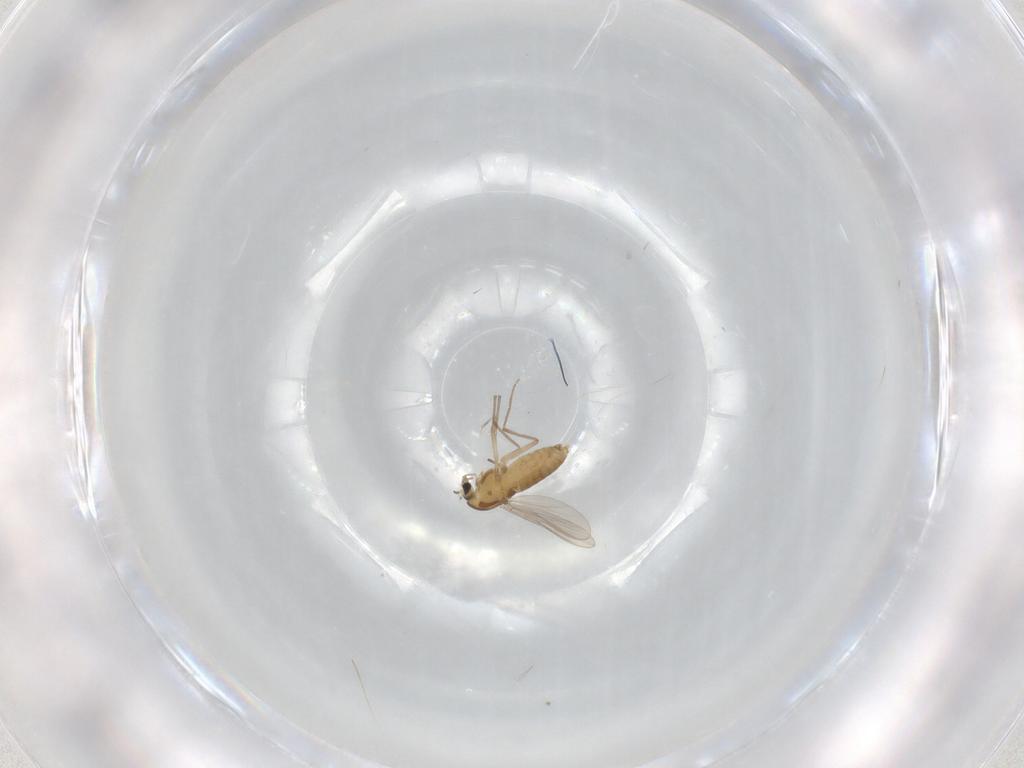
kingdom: Animalia
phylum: Arthropoda
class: Insecta
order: Diptera
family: Chironomidae
